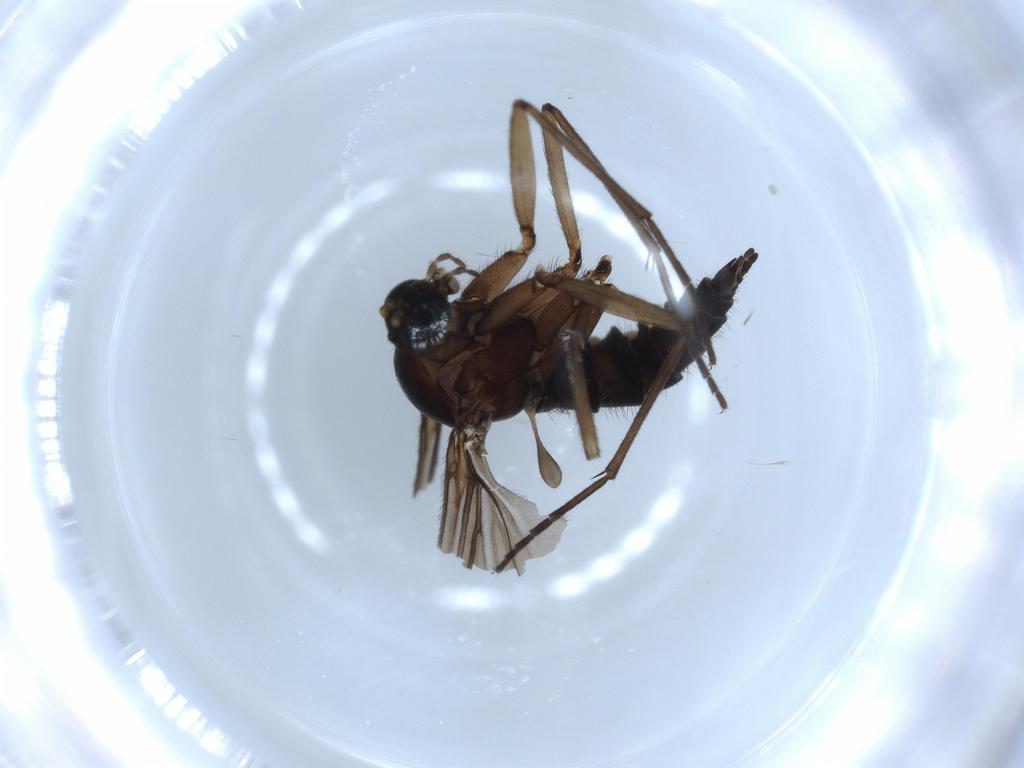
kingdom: Animalia
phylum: Arthropoda
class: Insecta
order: Diptera
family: Sciaridae
